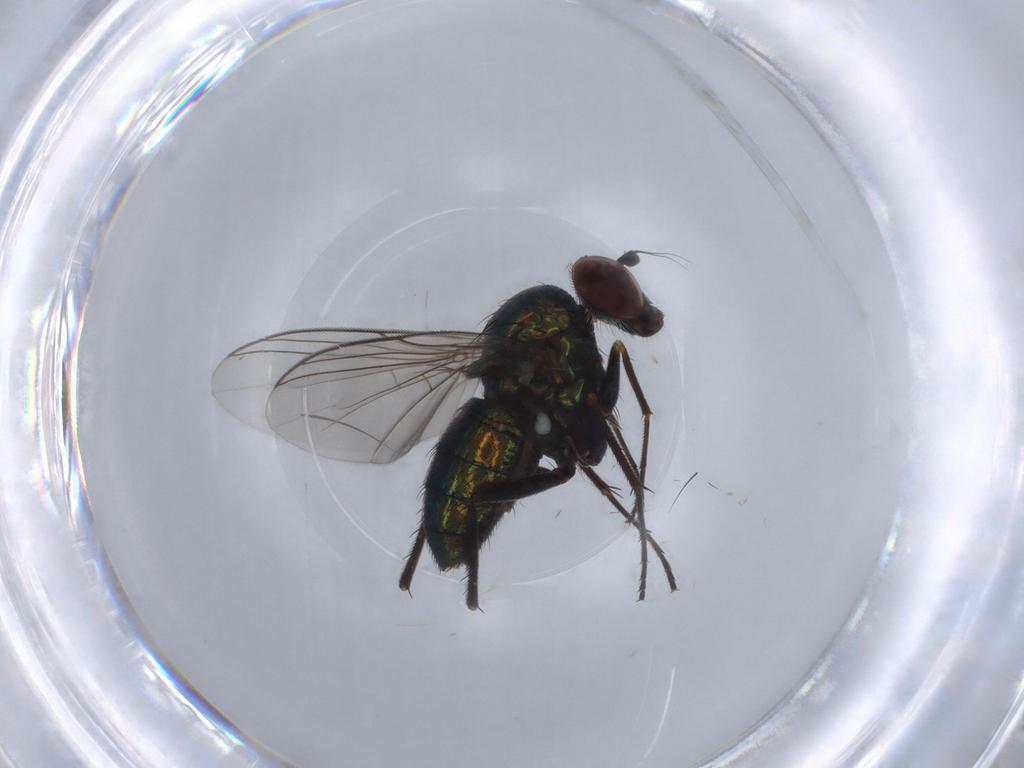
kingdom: Animalia
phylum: Arthropoda
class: Insecta
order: Diptera
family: Dolichopodidae
